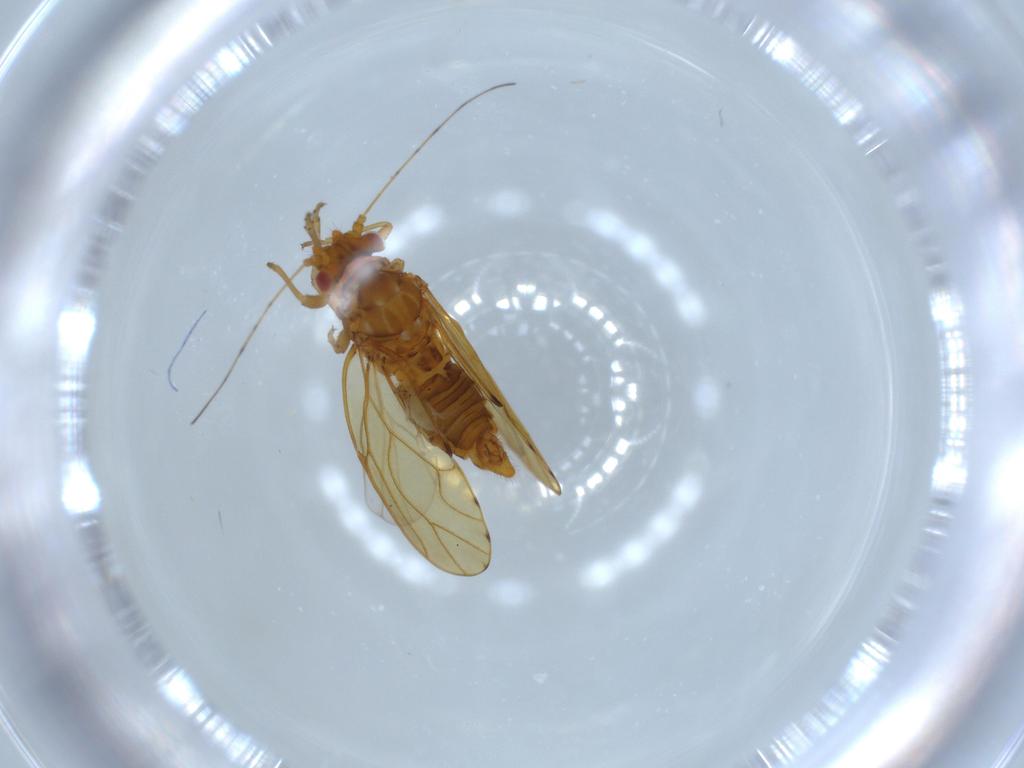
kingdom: Animalia
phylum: Arthropoda
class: Insecta
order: Hemiptera
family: Psylloidea_incertae_sedis
